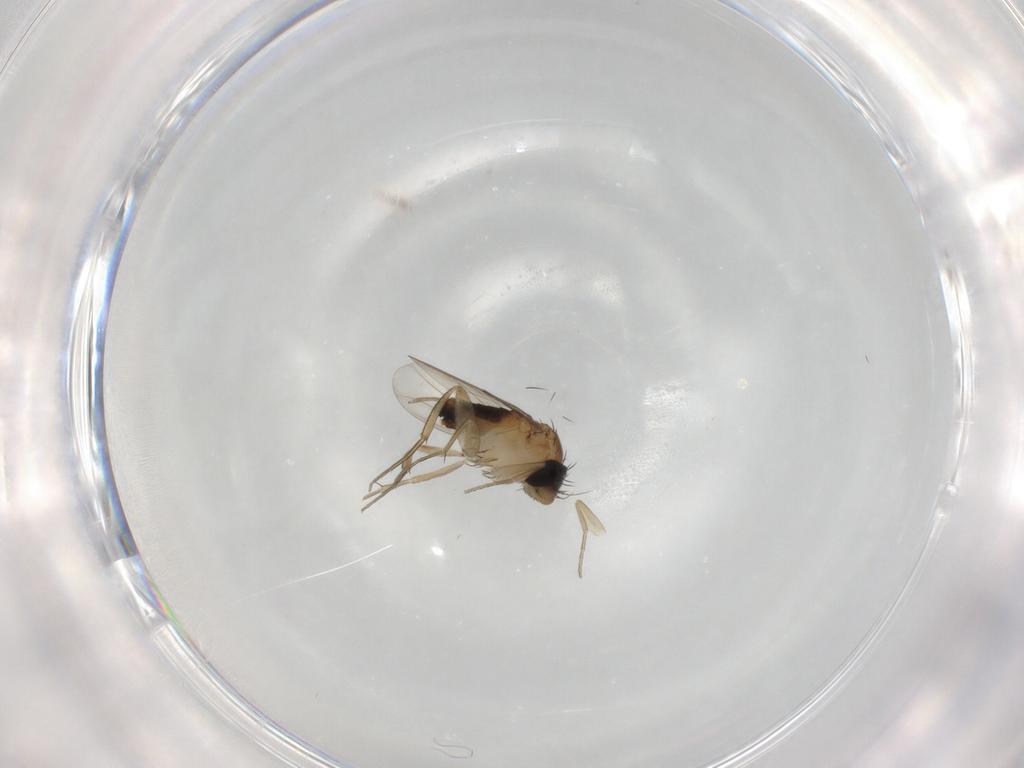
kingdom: Animalia
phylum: Arthropoda
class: Insecta
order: Diptera
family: Phoridae
